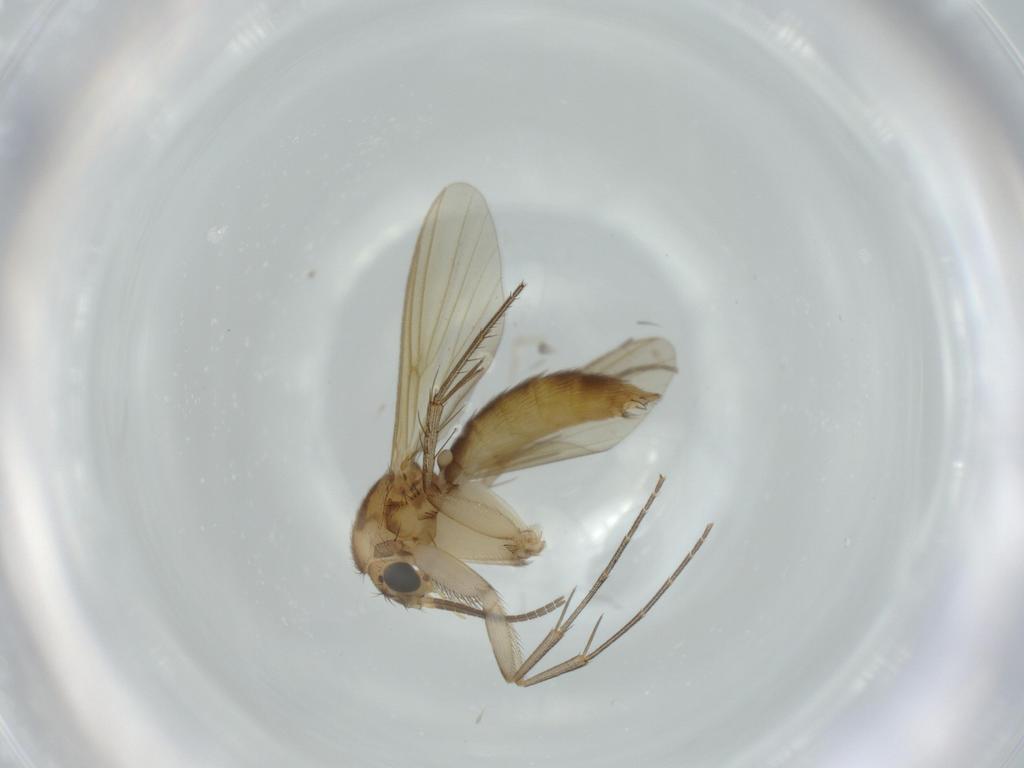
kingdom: Animalia
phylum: Arthropoda
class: Insecta
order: Diptera
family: Mycetophilidae
